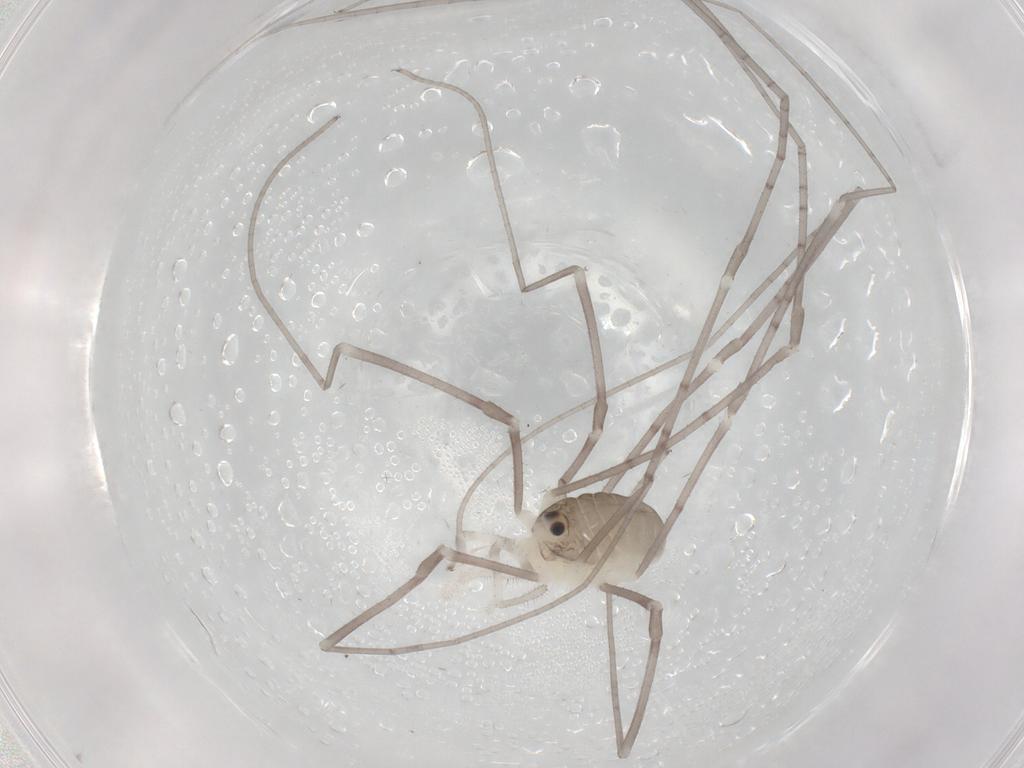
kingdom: Animalia
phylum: Arthropoda
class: Arachnida
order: Opiliones
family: Sclerosomatidae
